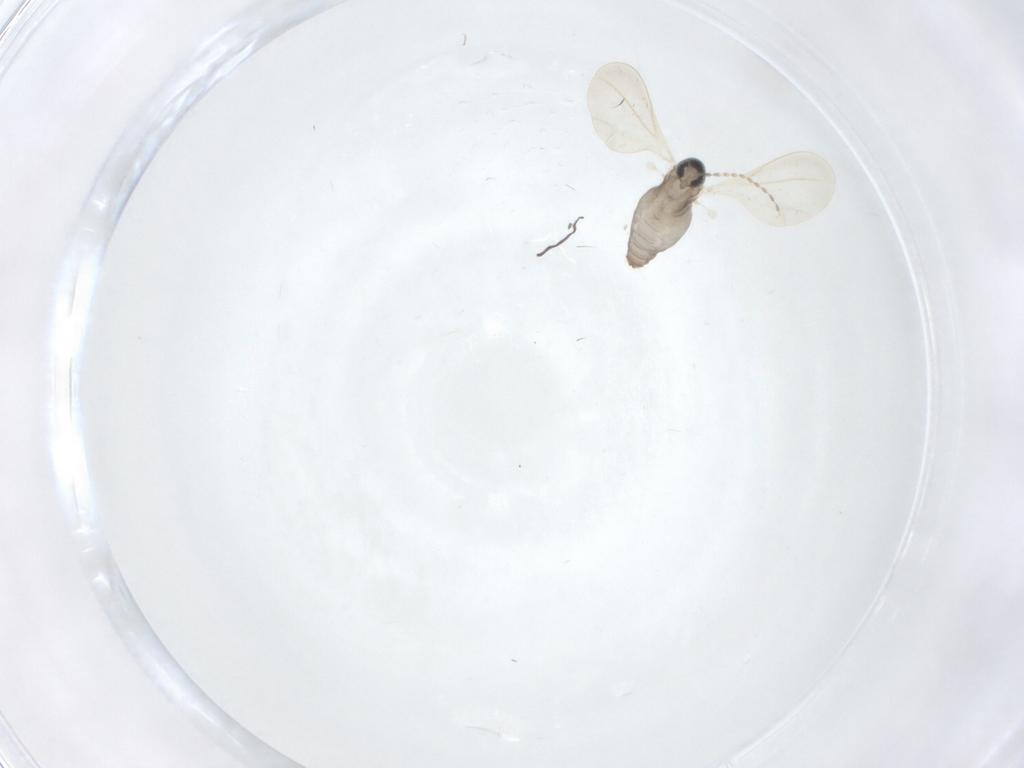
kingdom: Animalia
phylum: Arthropoda
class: Insecta
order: Diptera
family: Cecidomyiidae
